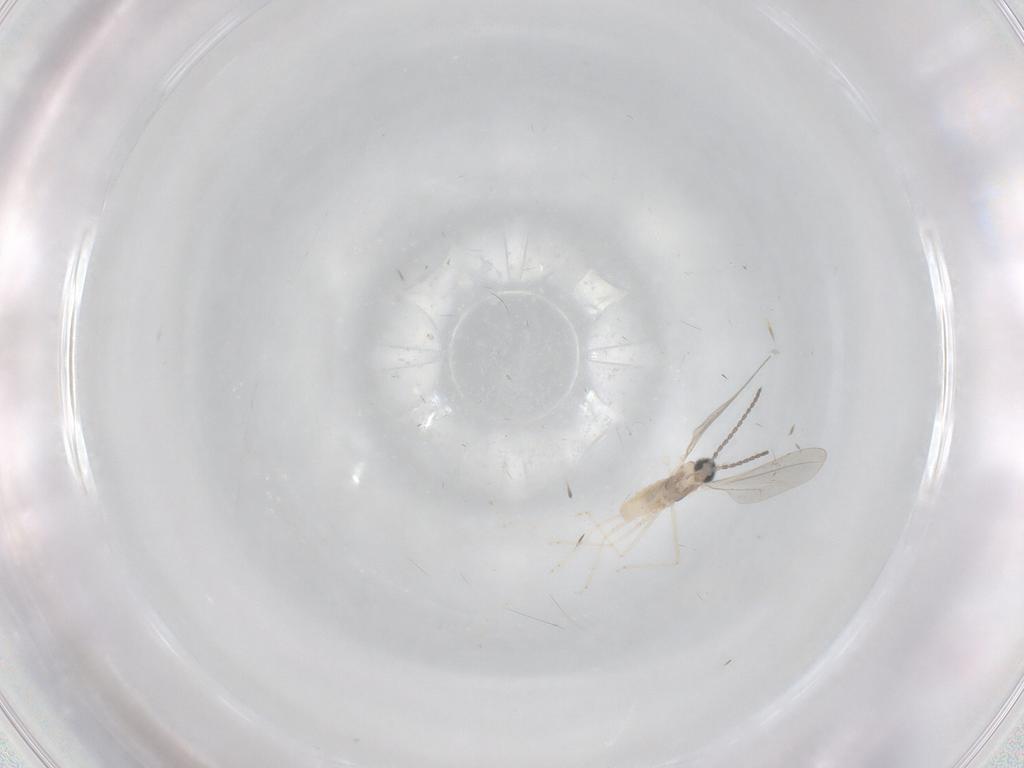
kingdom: Animalia
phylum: Arthropoda
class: Insecta
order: Diptera
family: Cecidomyiidae
